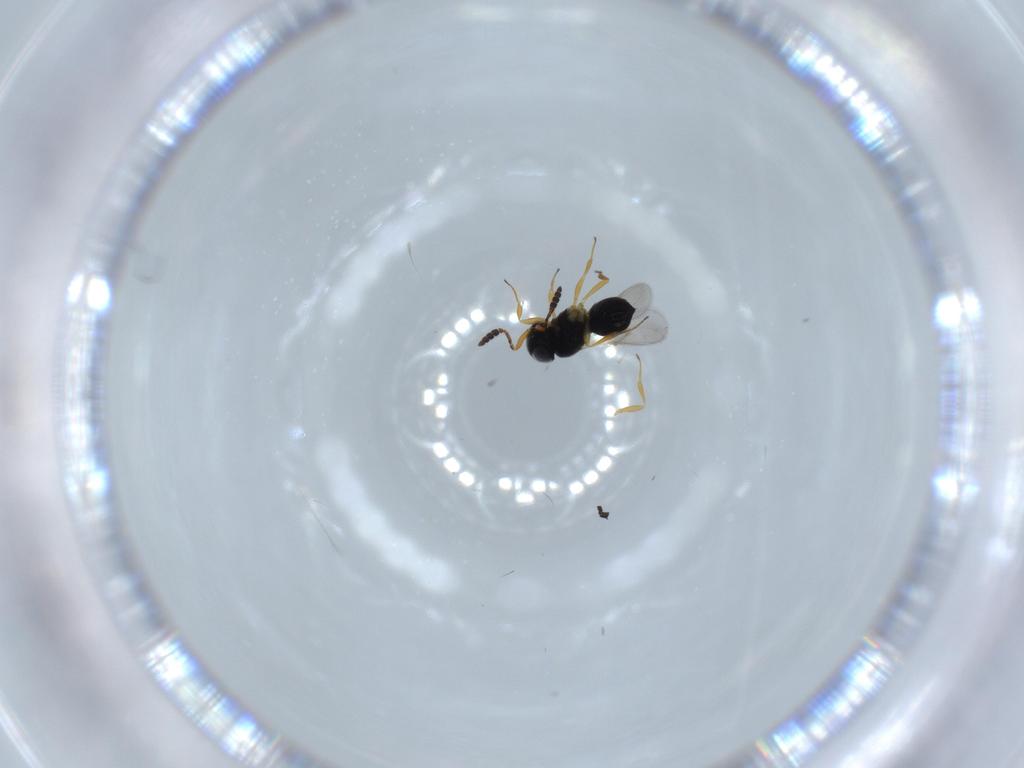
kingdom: Animalia
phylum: Arthropoda
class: Insecta
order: Hymenoptera
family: Scelionidae
